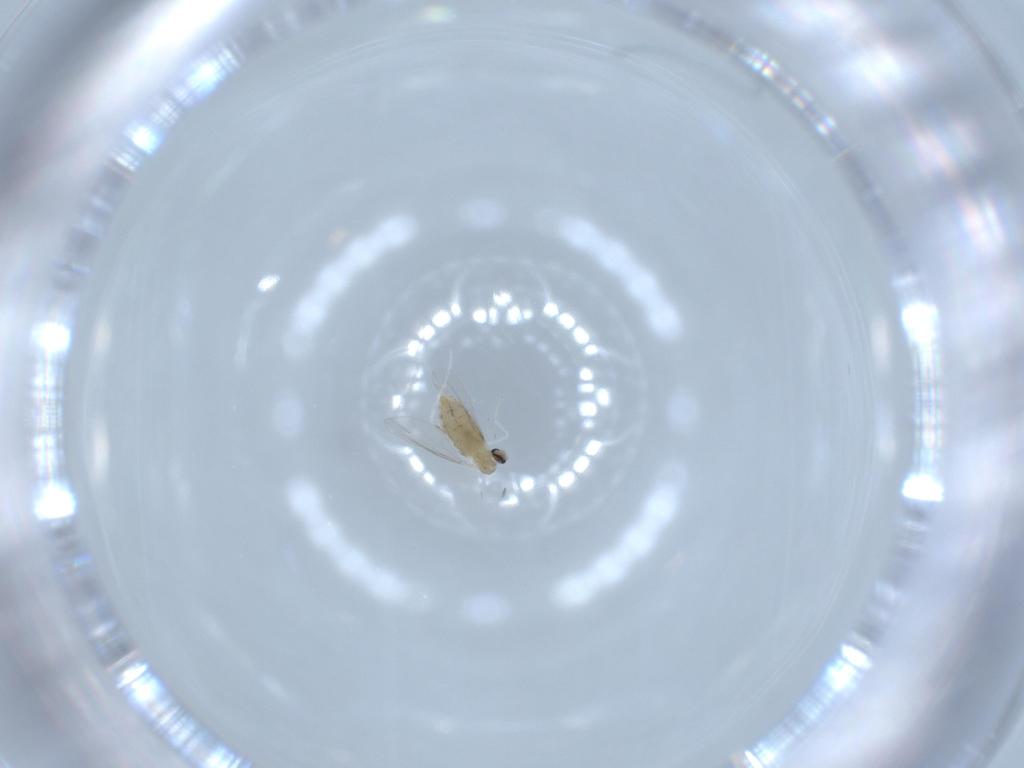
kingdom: Animalia
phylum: Arthropoda
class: Insecta
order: Diptera
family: Cecidomyiidae
